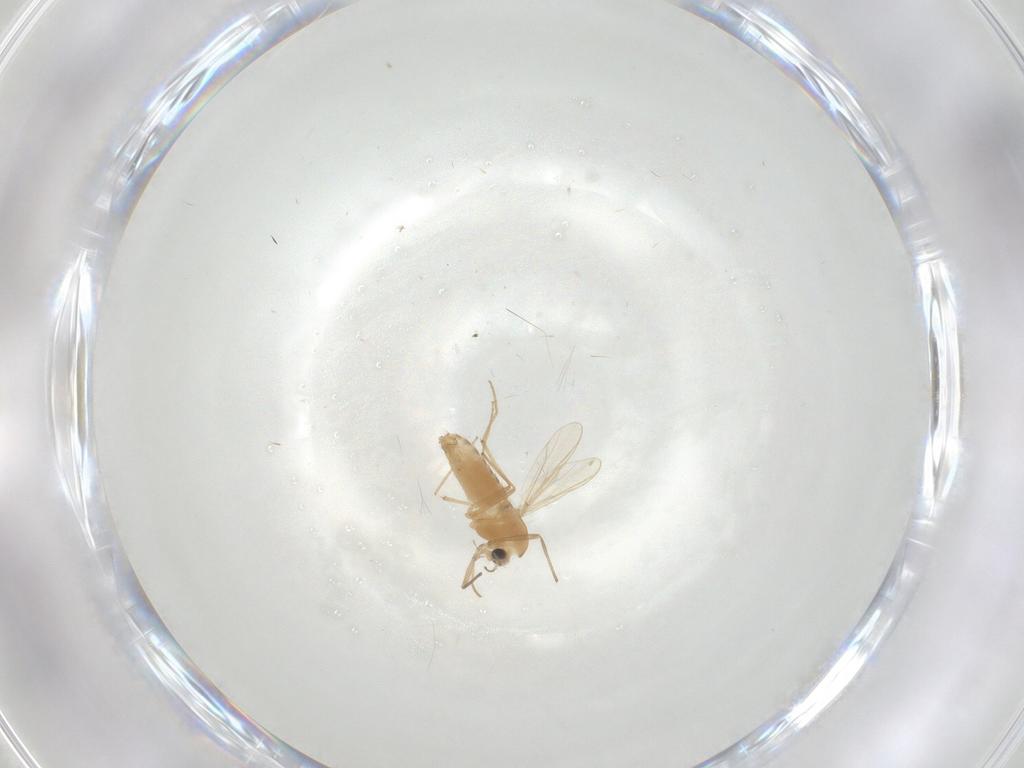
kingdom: Animalia
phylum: Arthropoda
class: Insecta
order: Diptera
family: Chironomidae
